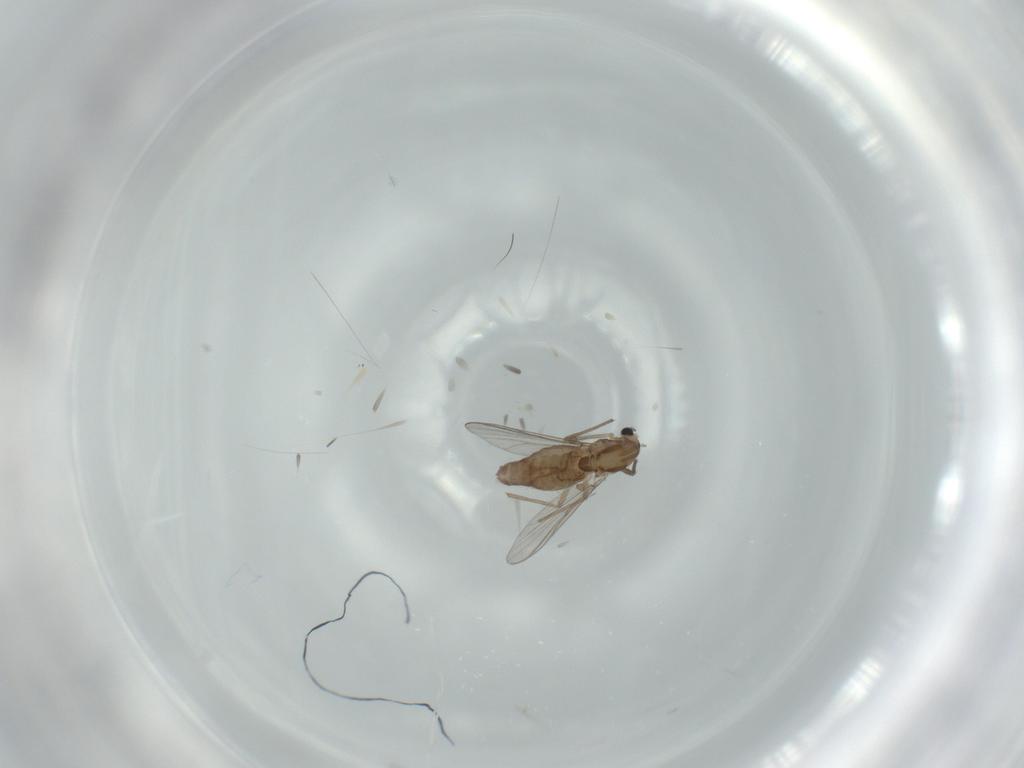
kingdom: Animalia
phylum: Arthropoda
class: Insecta
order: Diptera
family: Chironomidae
